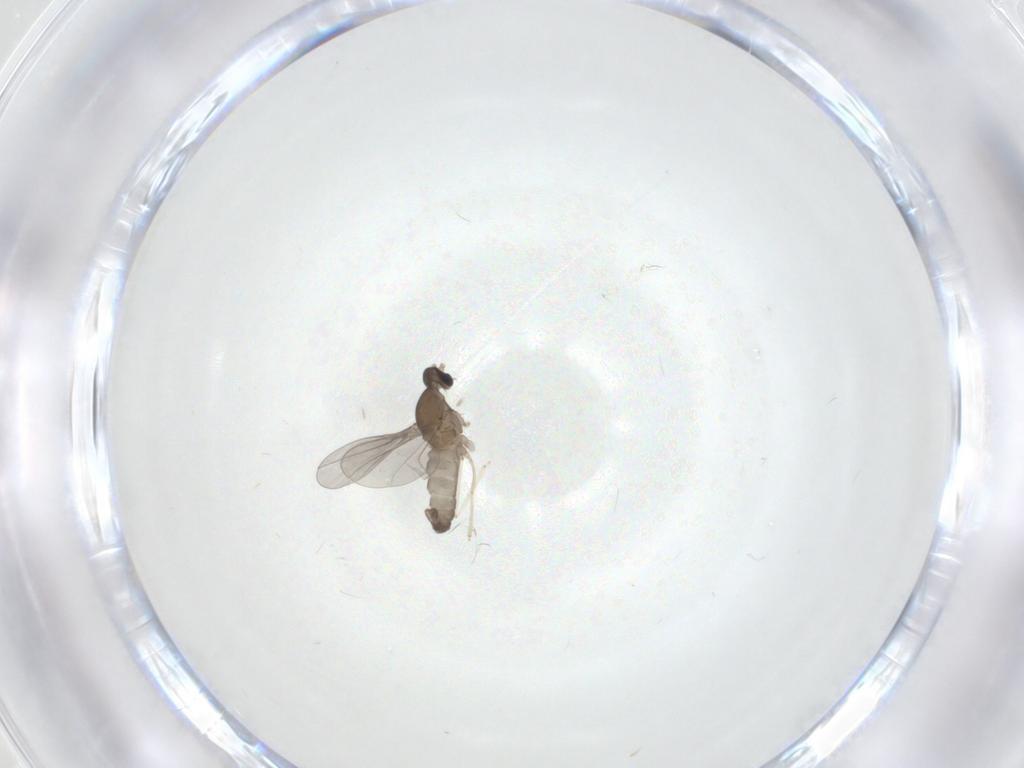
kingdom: Animalia
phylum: Arthropoda
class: Insecta
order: Diptera
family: Cecidomyiidae
